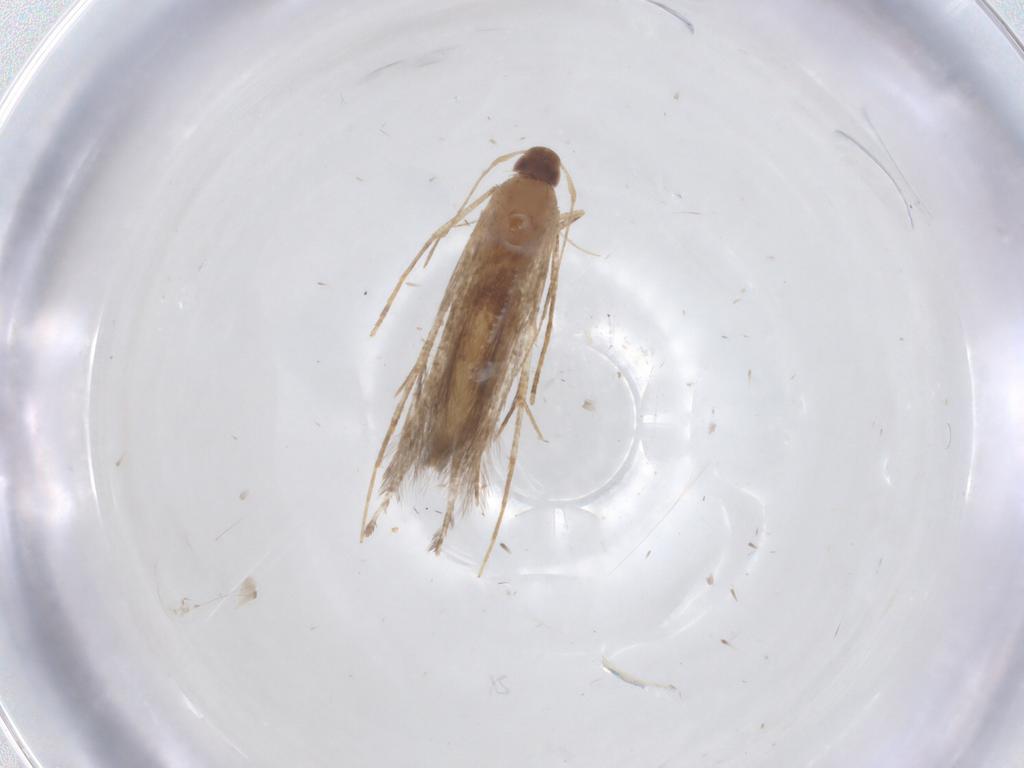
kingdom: Animalia
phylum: Arthropoda
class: Insecta
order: Lepidoptera
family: Cosmopterigidae
